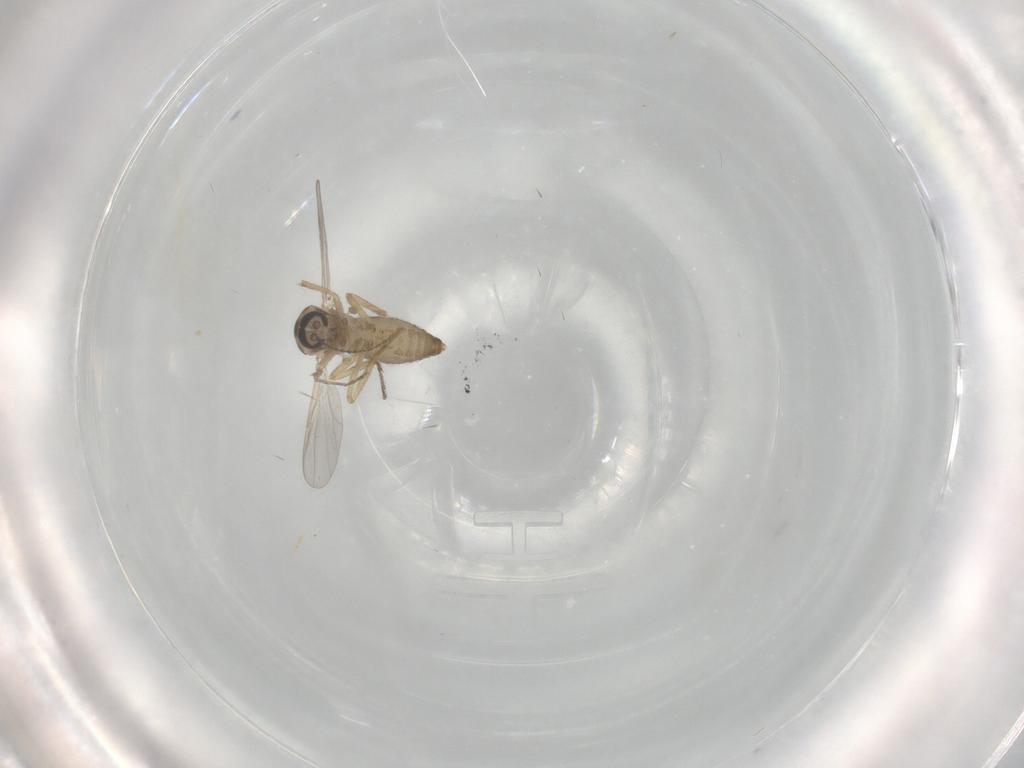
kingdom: Animalia
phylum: Arthropoda
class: Insecta
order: Diptera
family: Ceratopogonidae
